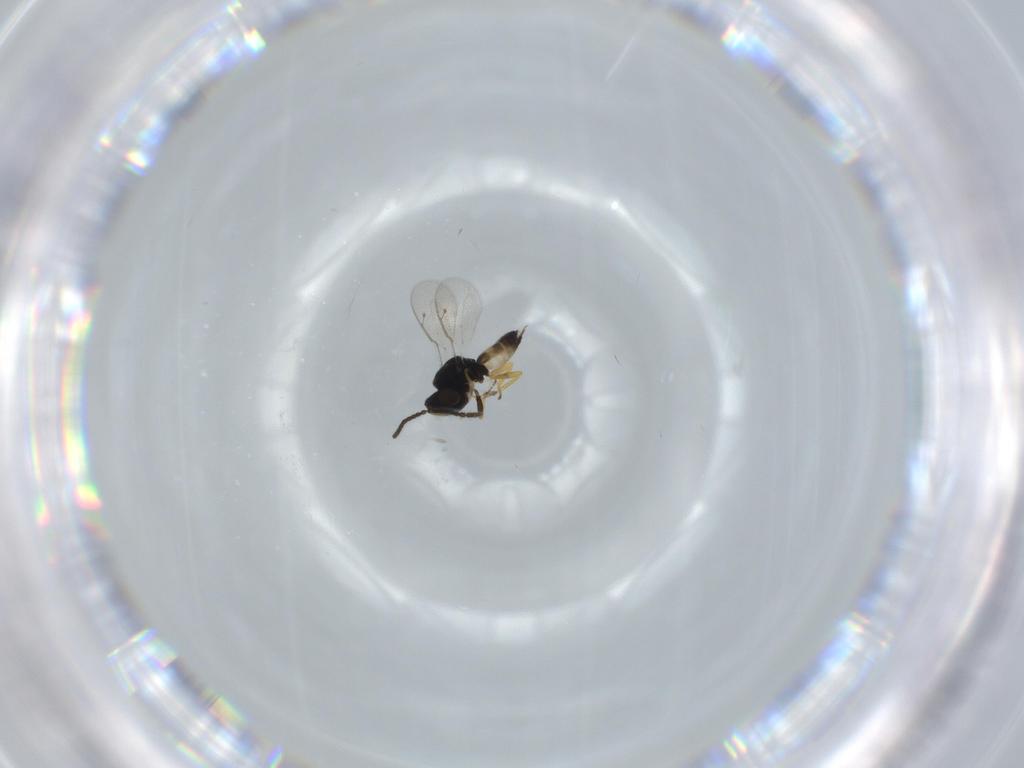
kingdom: Animalia
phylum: Arthropoda
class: Insecta
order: Hymenoptera
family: Pteromalidae
